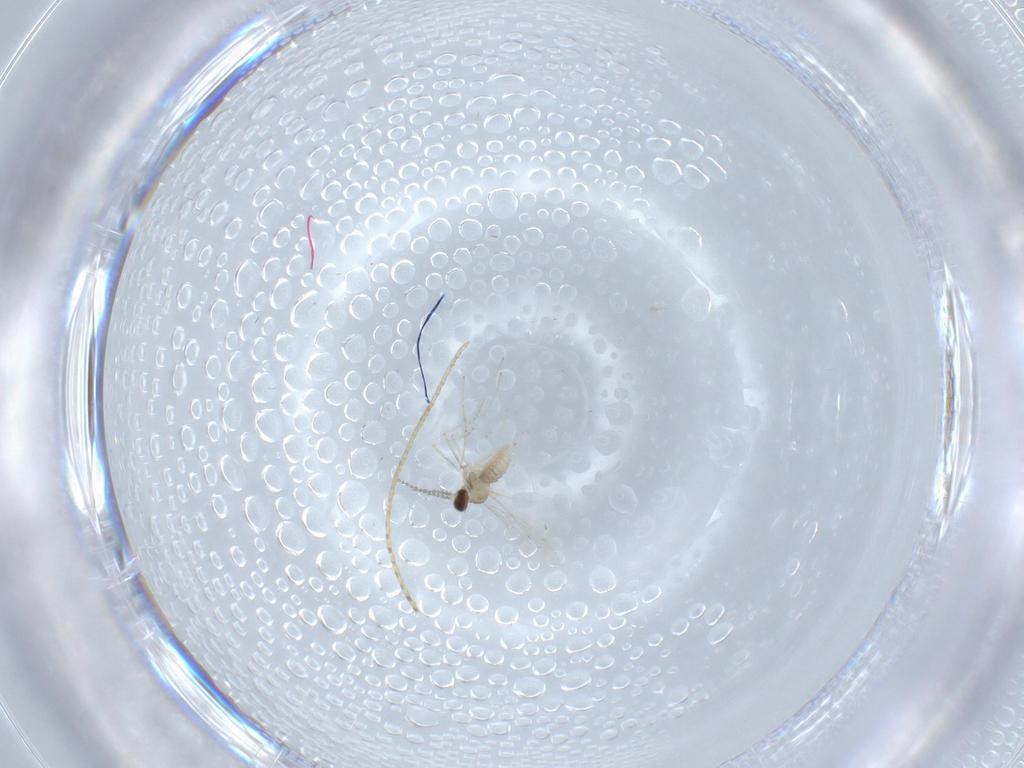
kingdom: Animalia
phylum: Arthropoda
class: Insecta
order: Diptera
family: Cecidomyiidae
